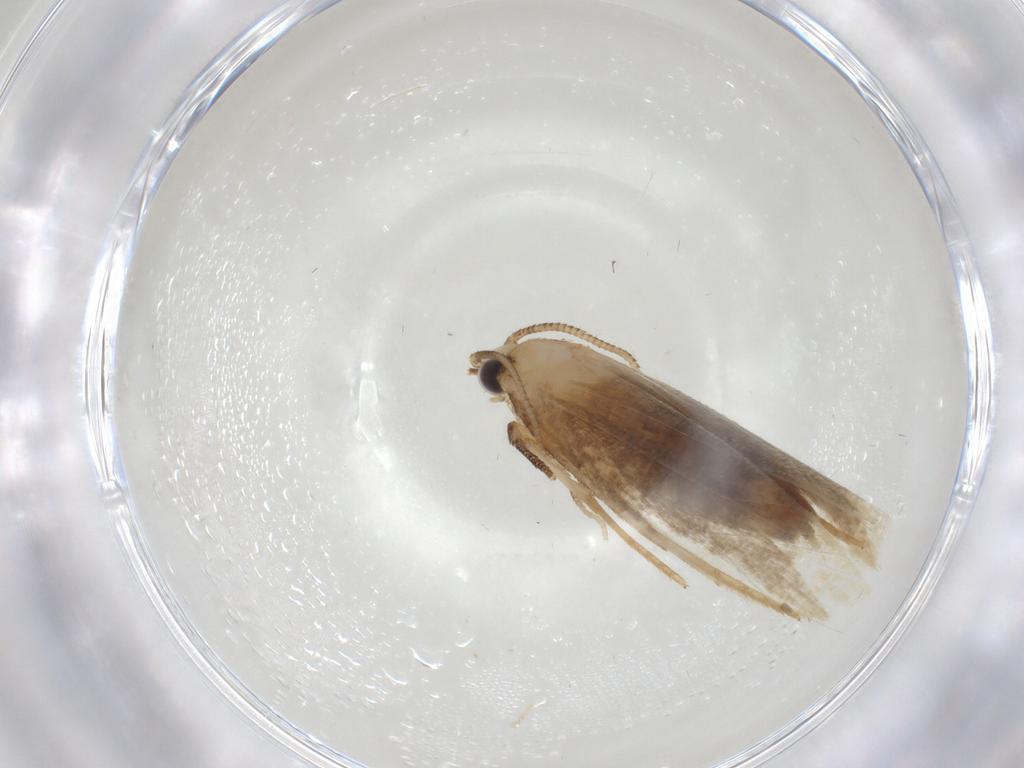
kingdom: Animalia
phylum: Arthropoda
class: Insecta
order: Lepidoptera
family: Tineidae
